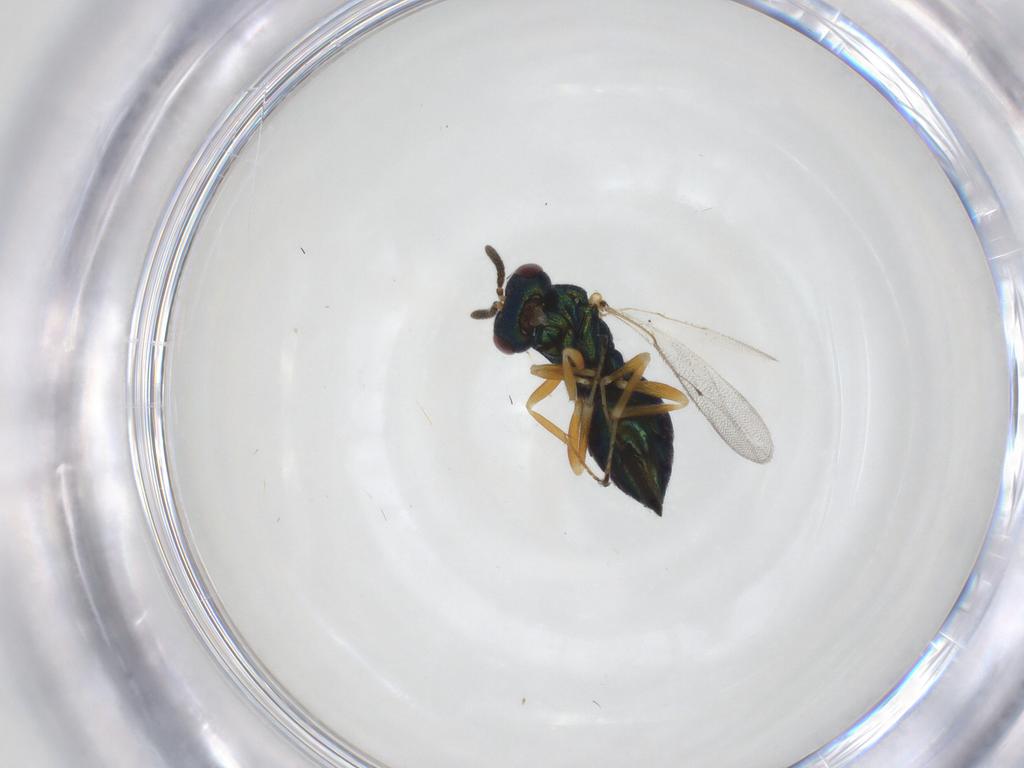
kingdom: Animalia
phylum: Arthropoda
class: Insecta
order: Hymenoptera
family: Pteromalidae
